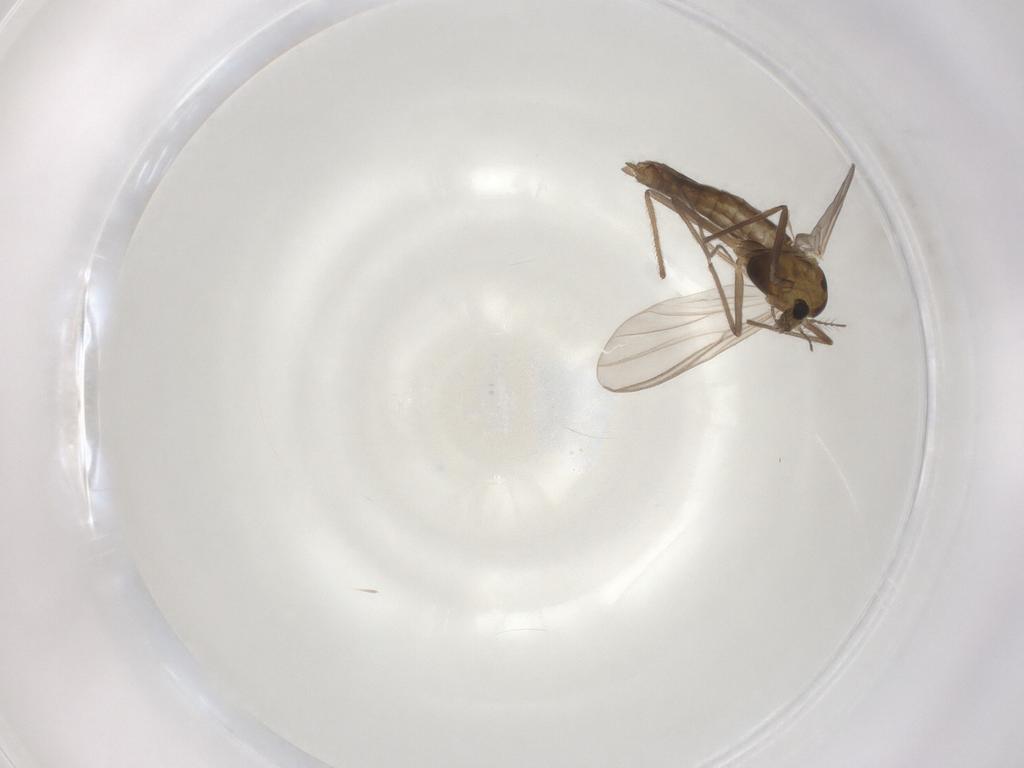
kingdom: Animalia
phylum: Arthropoda
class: Insecta
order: Diptera
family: Chironomidae
